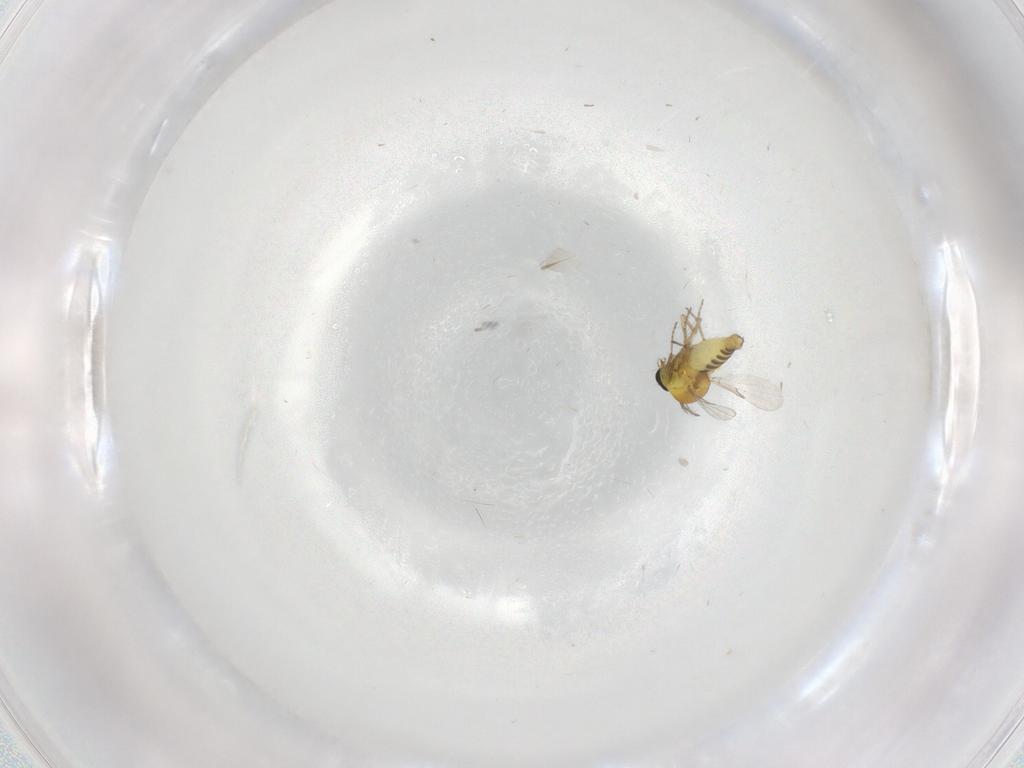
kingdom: Animalia
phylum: Arthropoda
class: Insecta
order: Diptera
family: Ceratopogonidae
